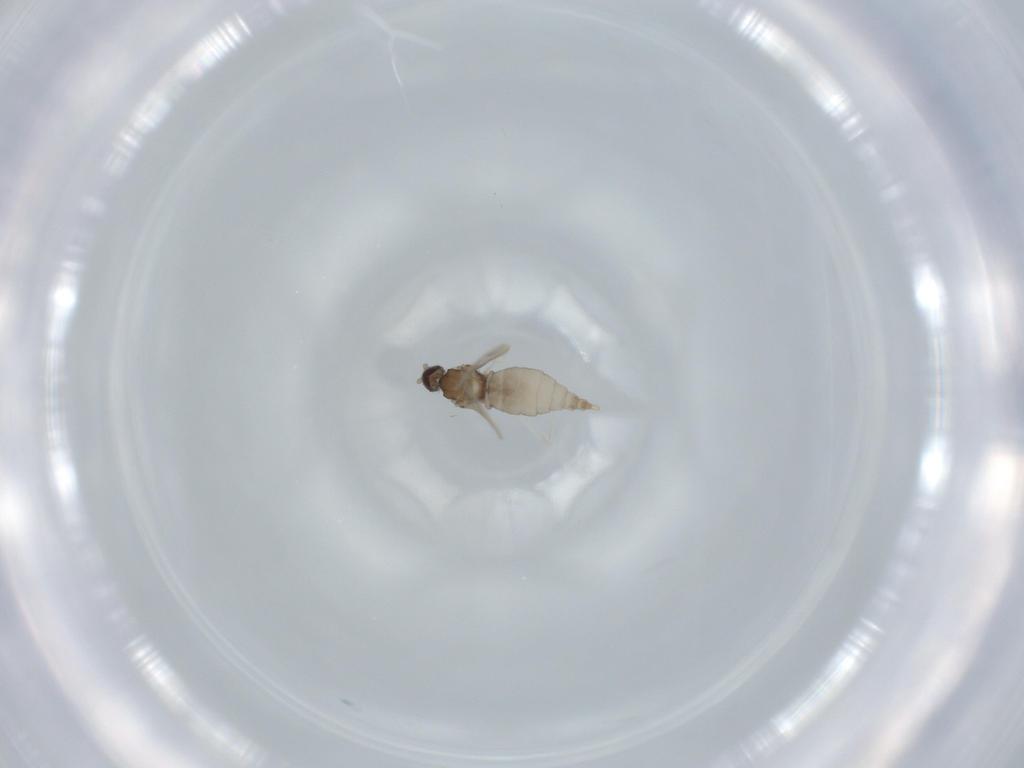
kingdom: Animalia
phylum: Arthropoda
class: Insecta
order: Diptera
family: Cecidomyiidae
